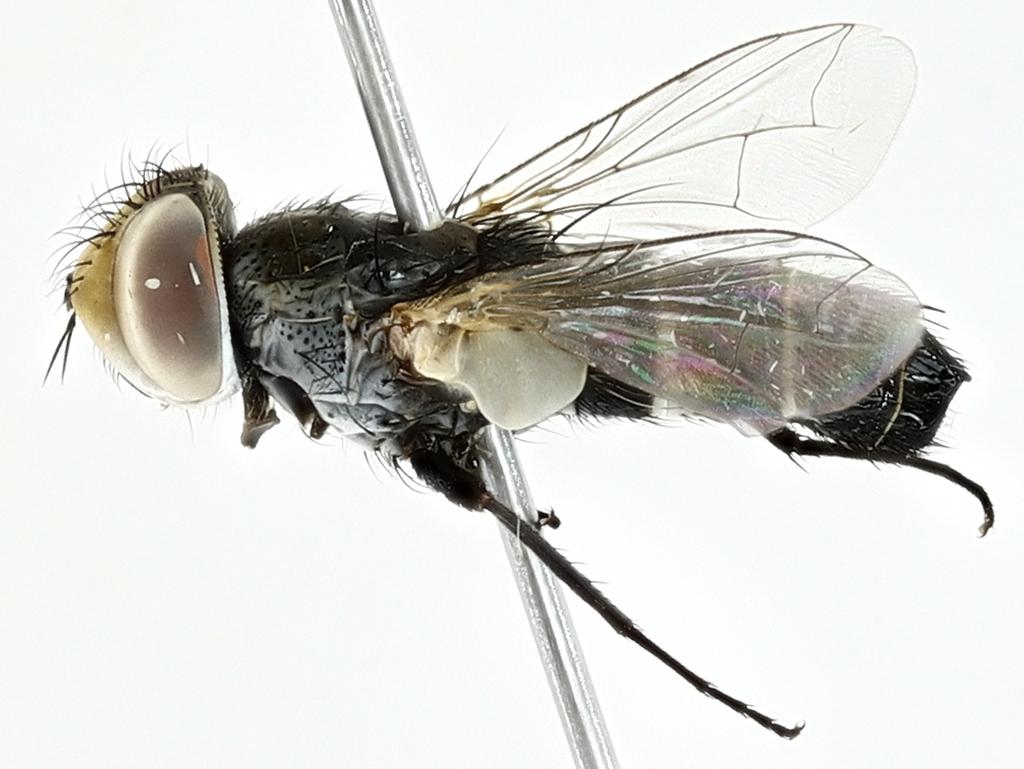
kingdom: Animalia
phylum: Arthropoda
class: Insecta
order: Diptera
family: Anthomyiidae
